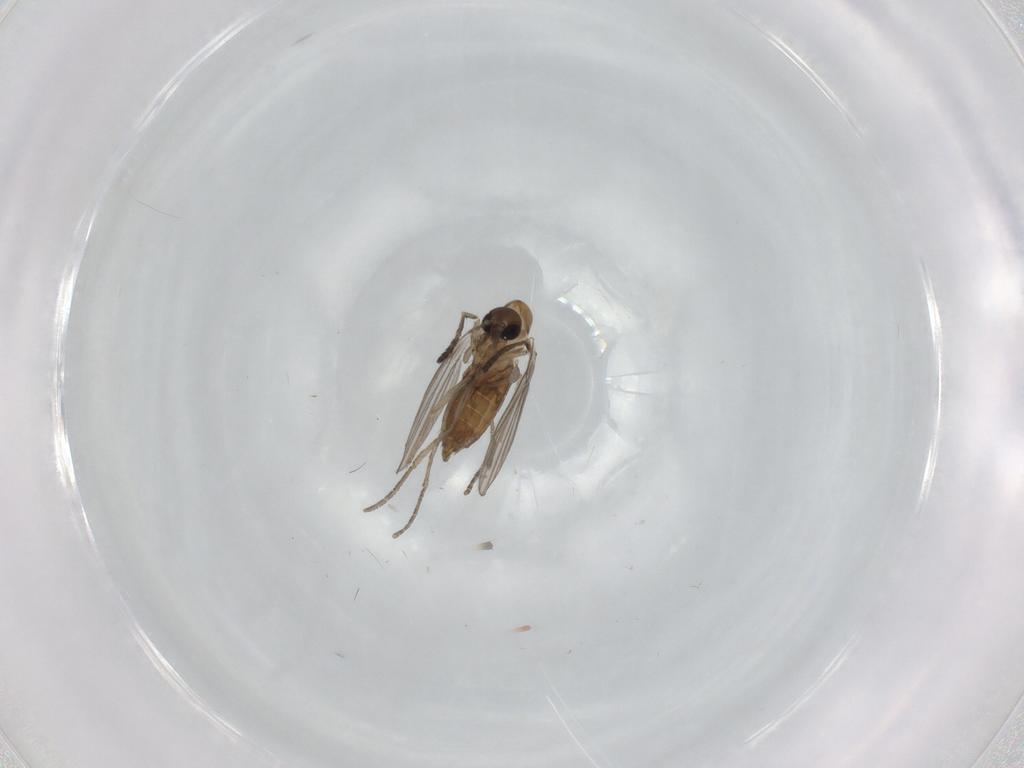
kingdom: Animalia
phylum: Arthropoda
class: Insecta
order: Diptera
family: Psychodidae
